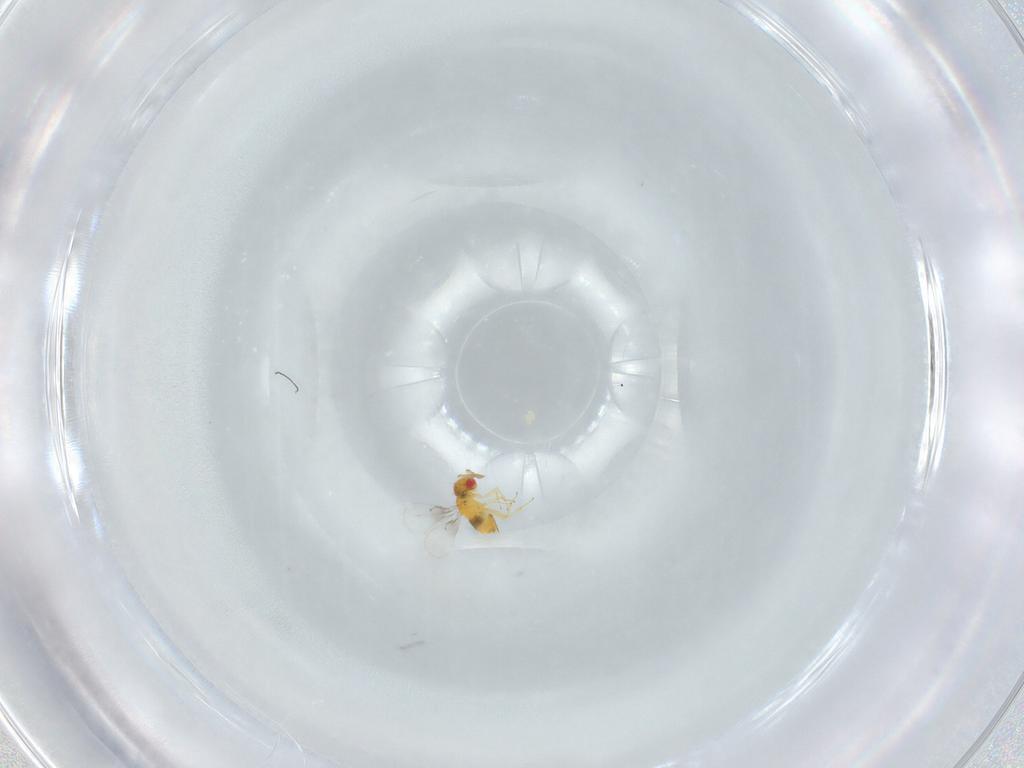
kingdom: Animalia
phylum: Arthropoda
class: Insecta
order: Hymenoptera
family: Trichogrammatidae
